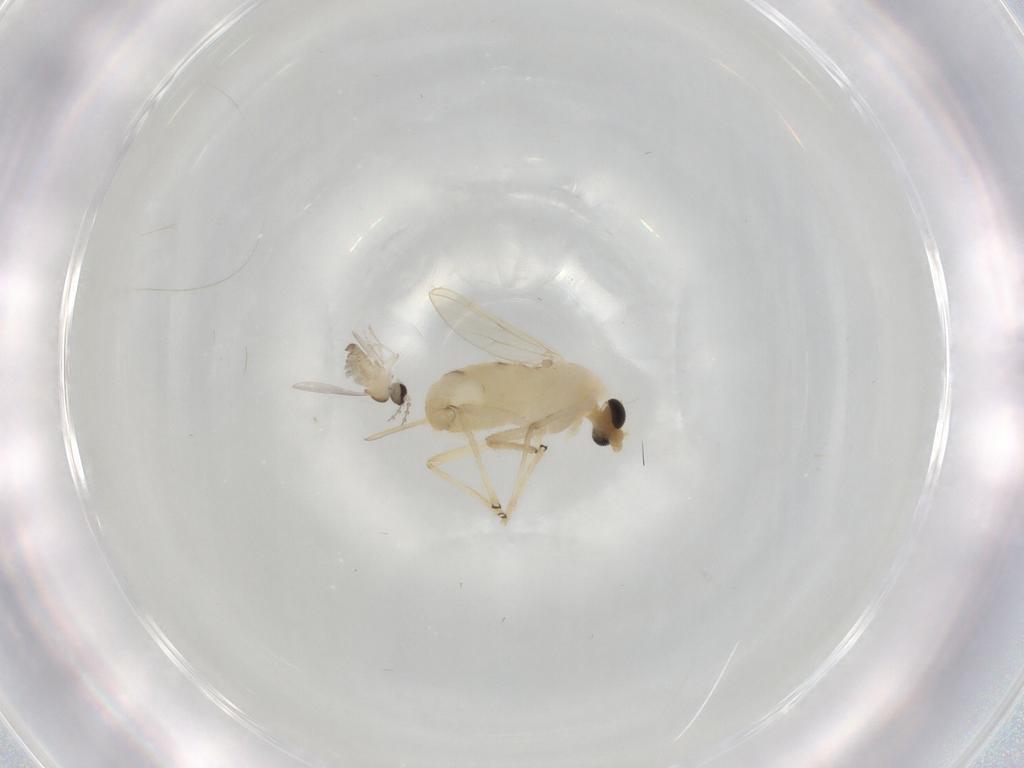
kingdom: Animalia
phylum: Arthropoda
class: Insecta
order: Diptera
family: Chironomidae
